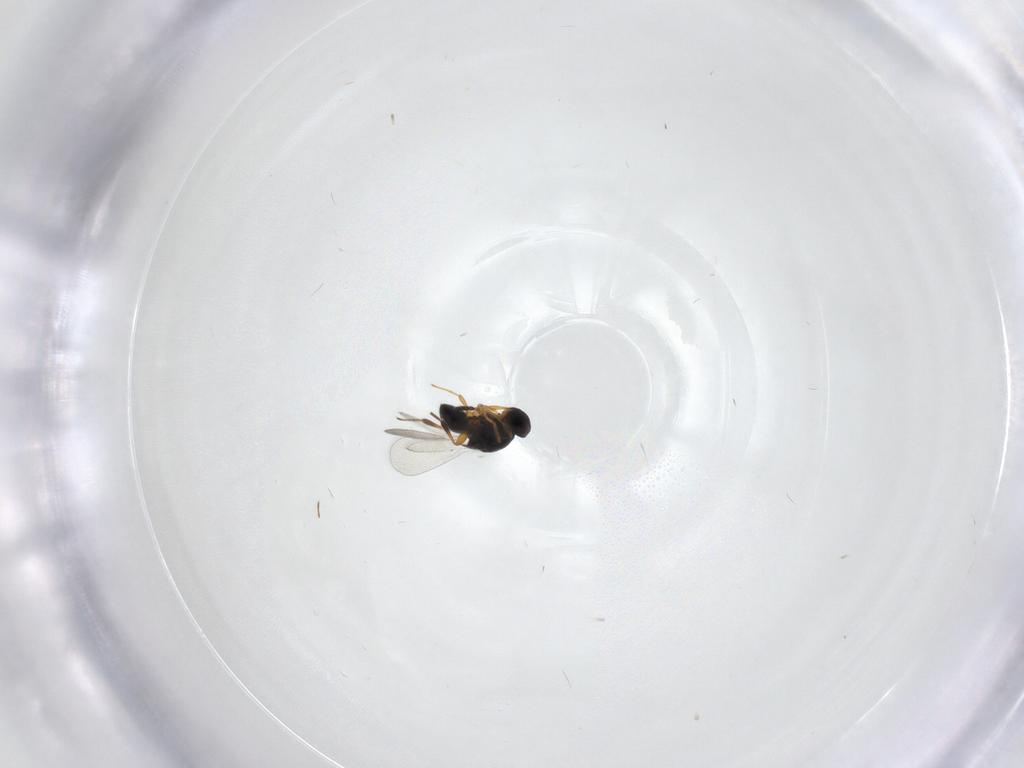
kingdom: Animalia
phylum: Arthropoda
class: Insecta
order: Hymenoptera
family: Platygastridae
